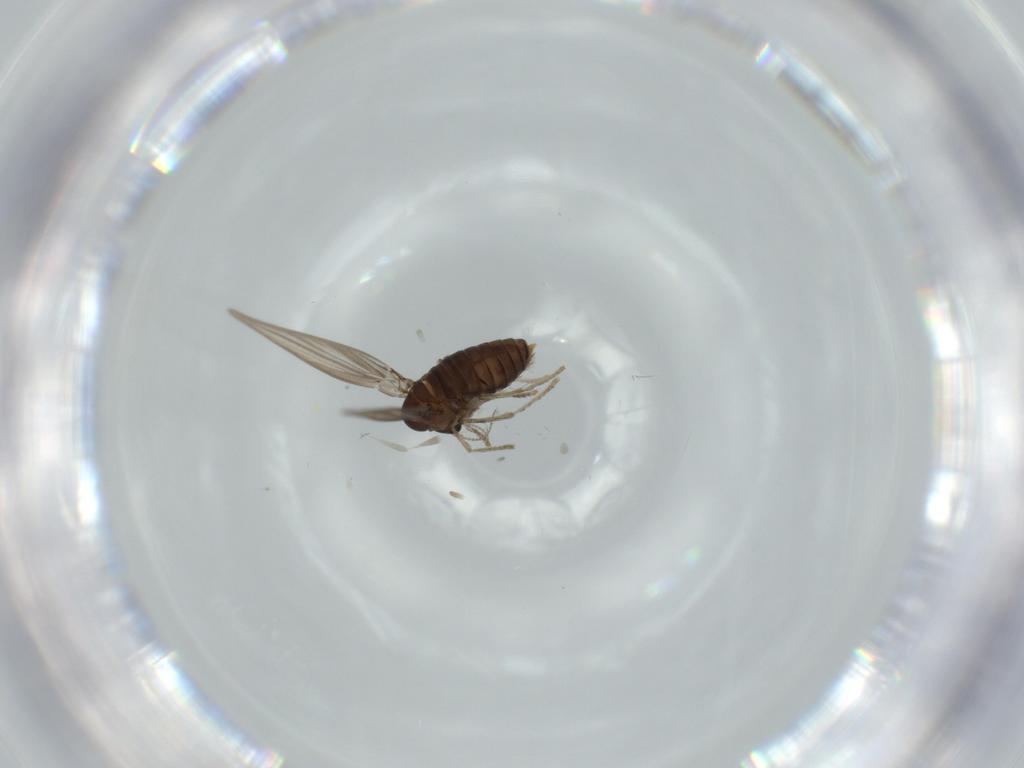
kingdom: Animalia
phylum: Arthropoda
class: Insecta
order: Diptera
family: Psychodidae
